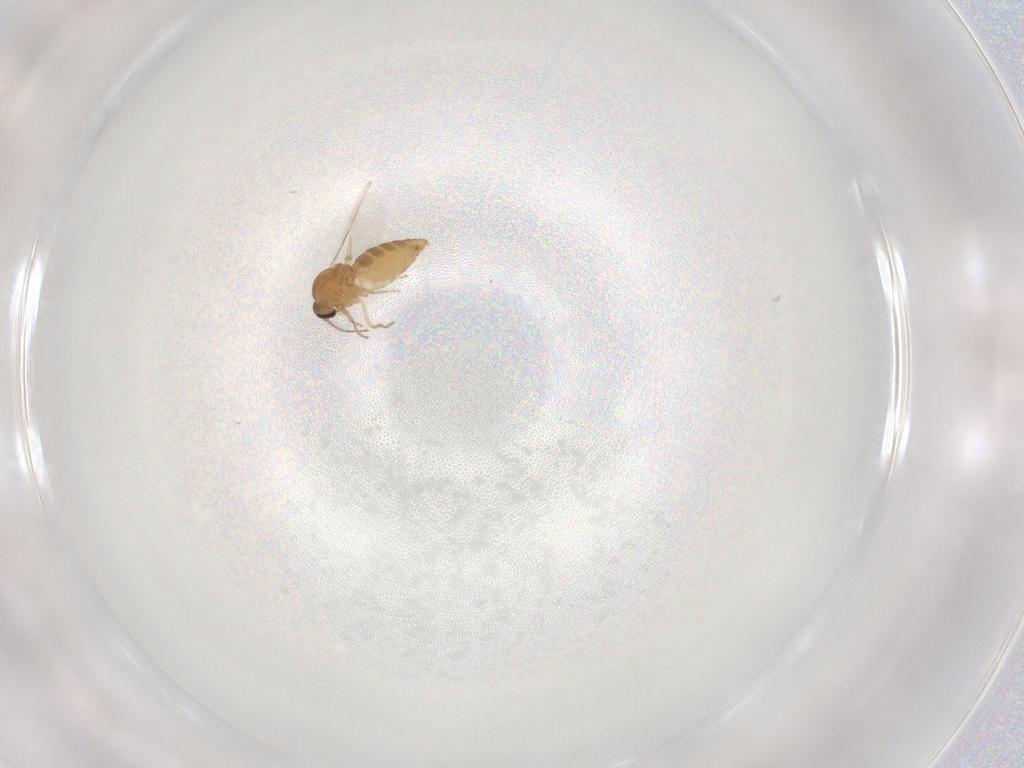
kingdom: Animalia
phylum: Arthropoda
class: Insecta
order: Diptera
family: Ceratopogonidae
